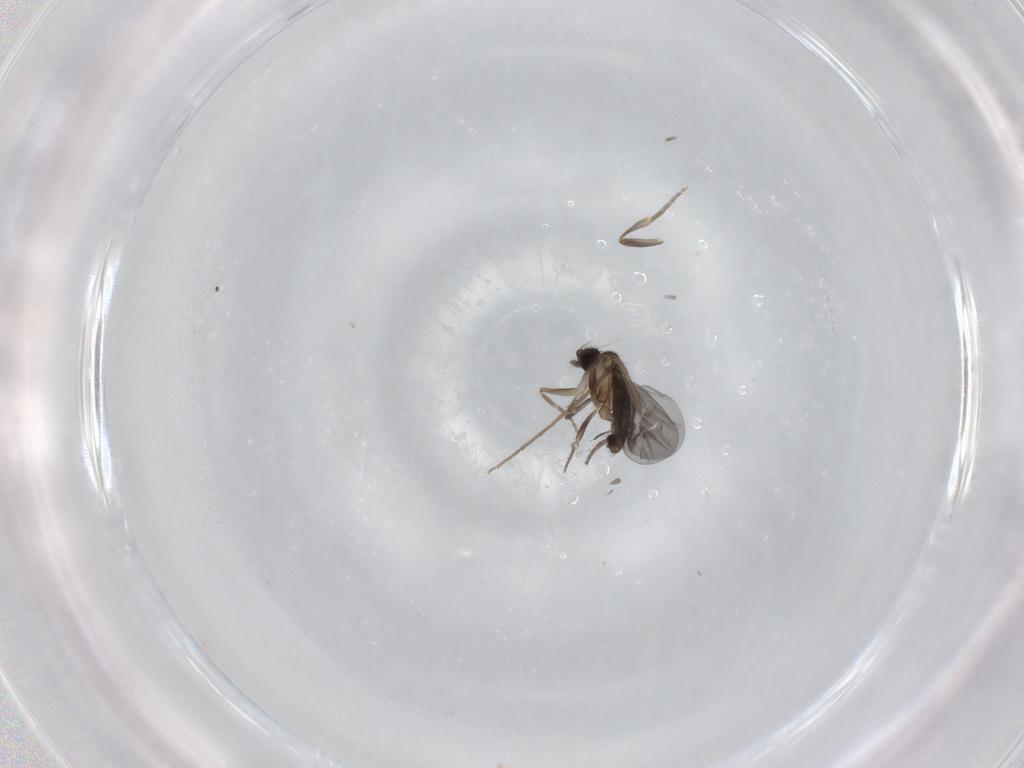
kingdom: Animalia
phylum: Arthropoda
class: Insecta
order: Diptera
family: Chironomidae
